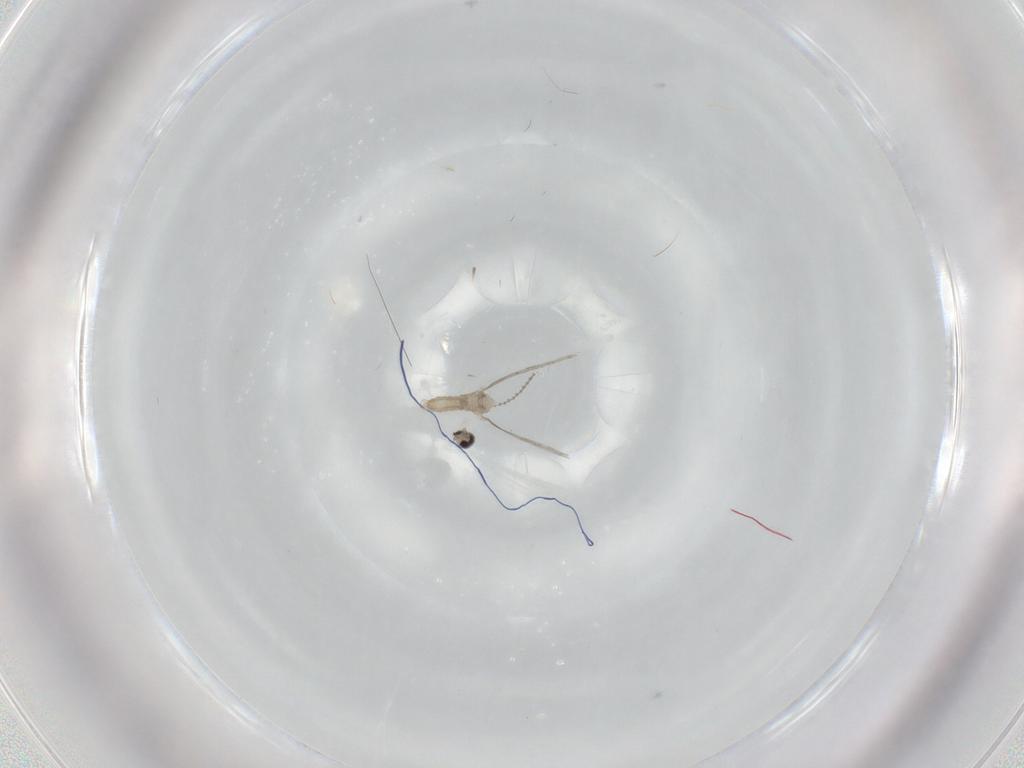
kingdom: Animalia
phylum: Arthropoda
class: Insecta
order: Diptera
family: Cecidomyiidae
